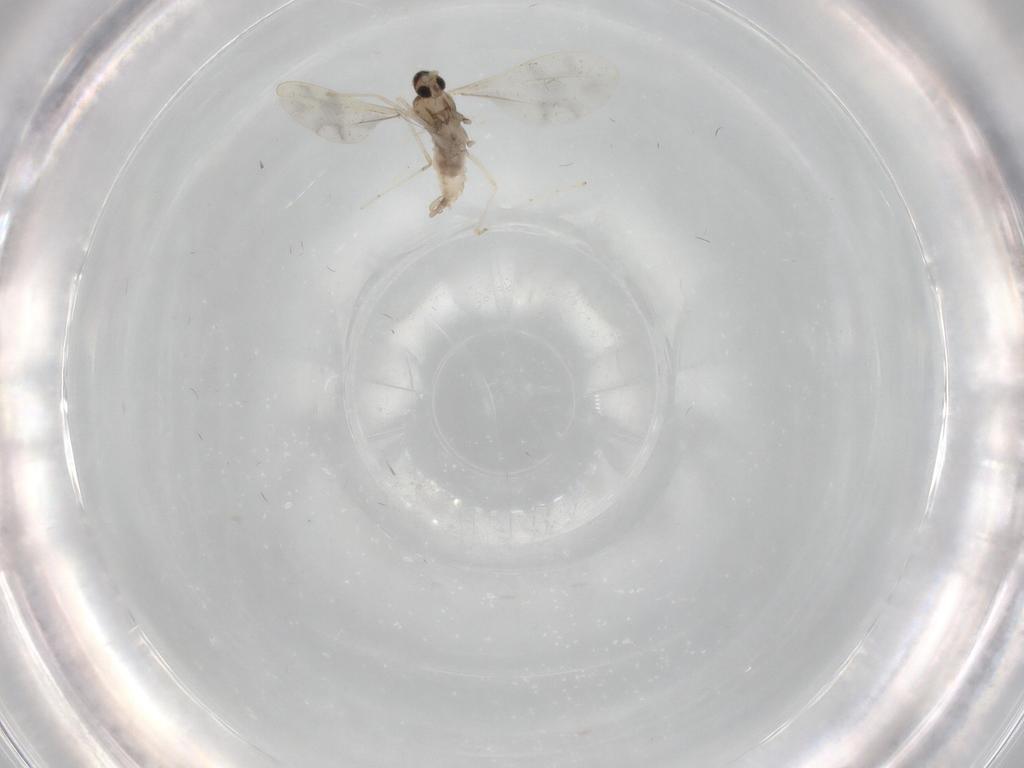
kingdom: Animalia
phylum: Arthropoda
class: Insecta
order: Diptera
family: Cecidomyiidae
